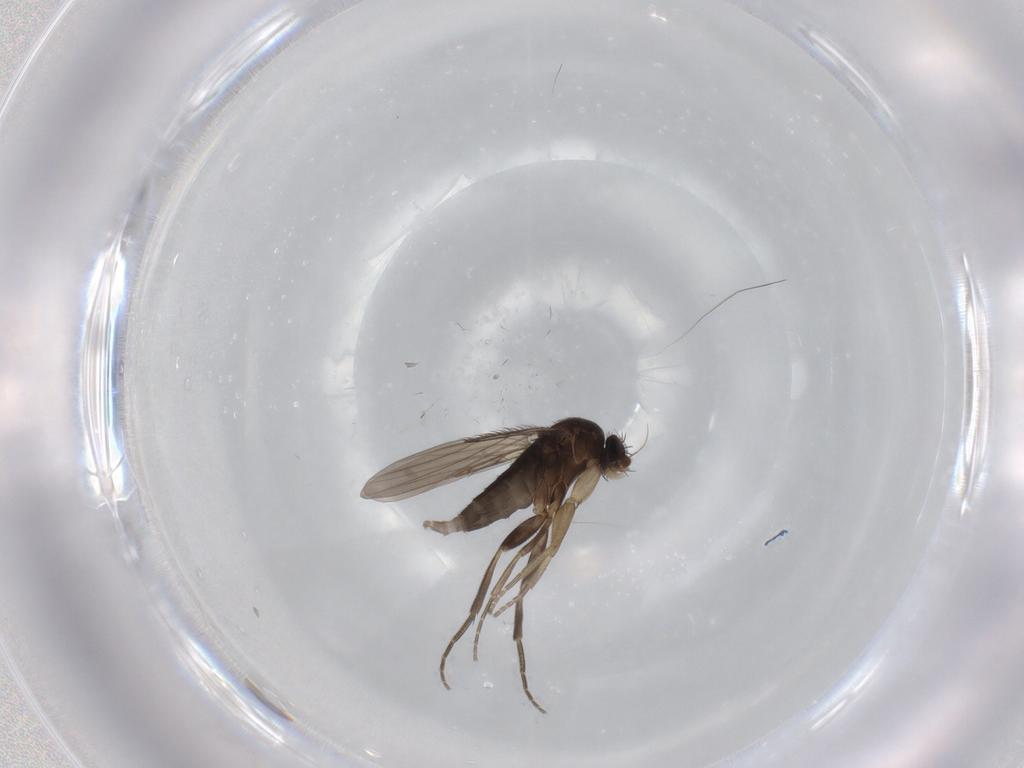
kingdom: Animalia
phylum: Arthropoda
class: Insecta
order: Diptera
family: Phoridae
